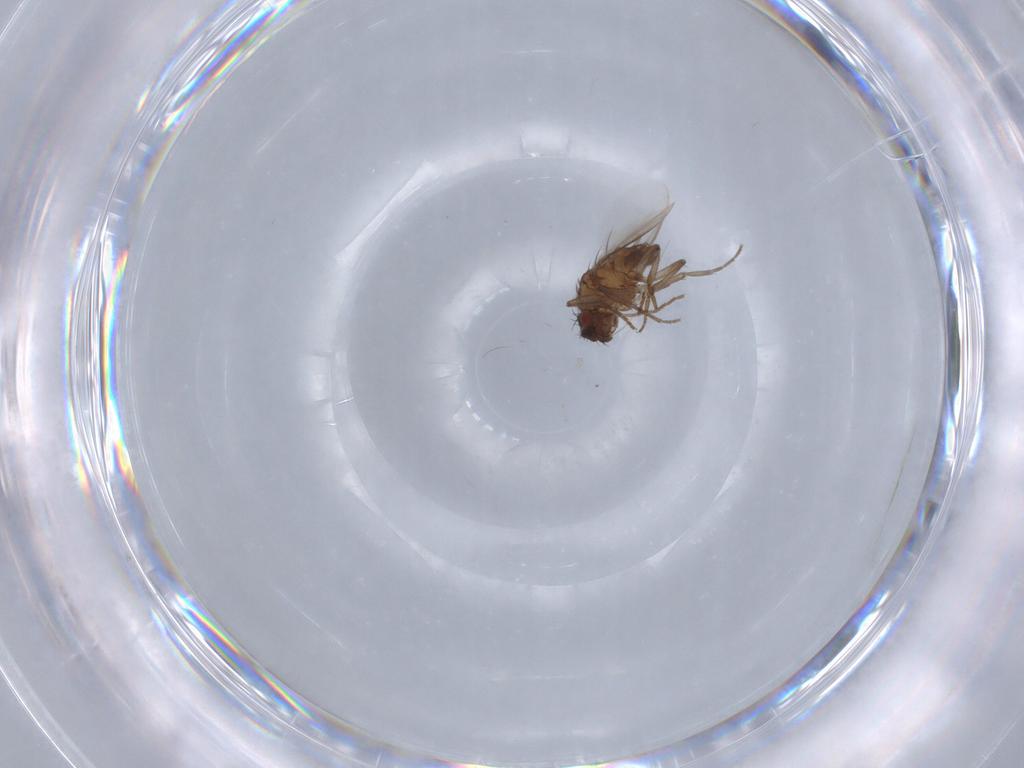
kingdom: Animalia
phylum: Arthropoda
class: Insecta
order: Diptera
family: Sphaeroceridae
